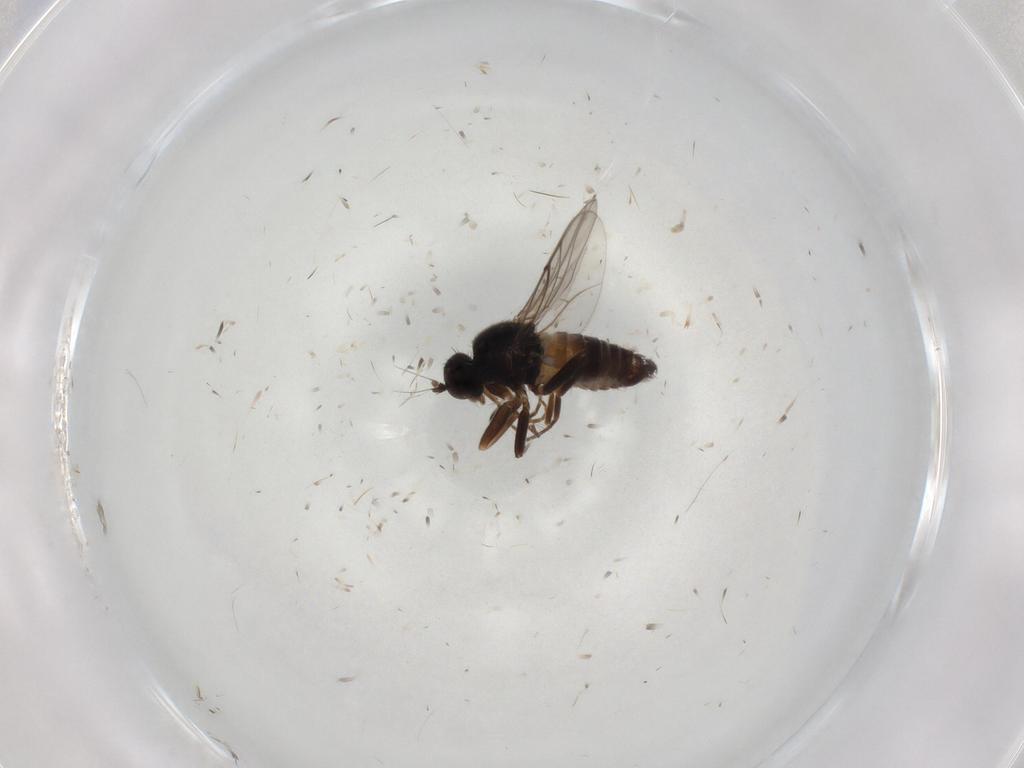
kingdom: Animalia
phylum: Arthropoda
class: Insecta
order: Diptera
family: Hybotidae
